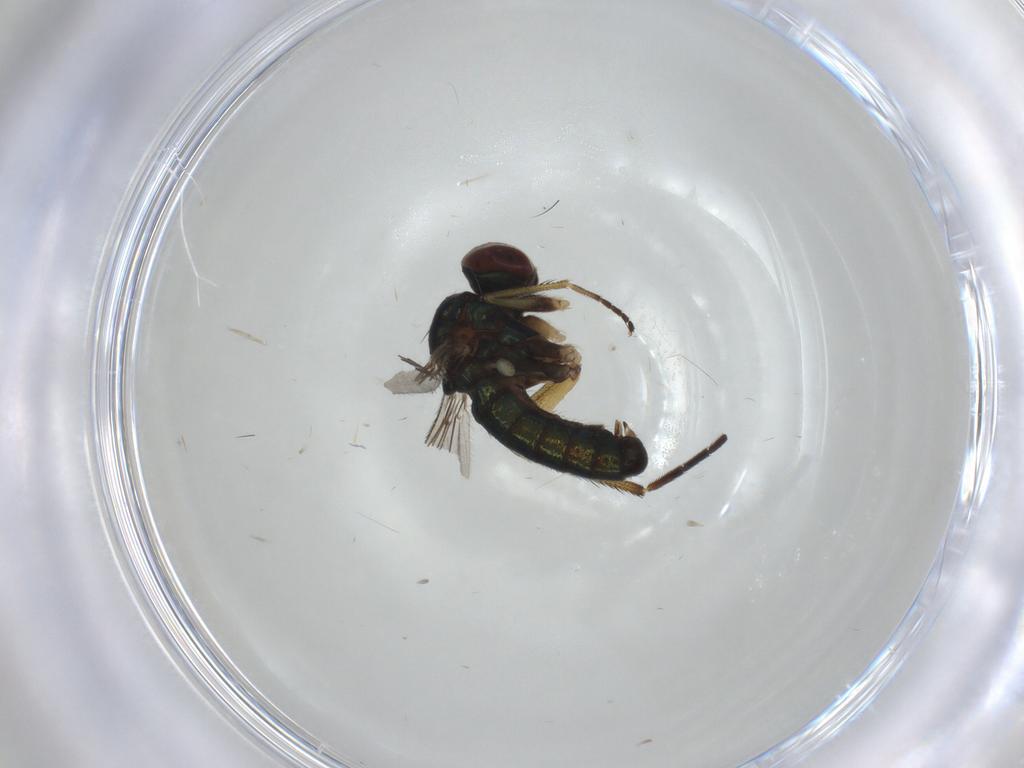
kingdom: Animalia
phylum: Arthropoda
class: Insecta
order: Diptera
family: Dolichopodidae
